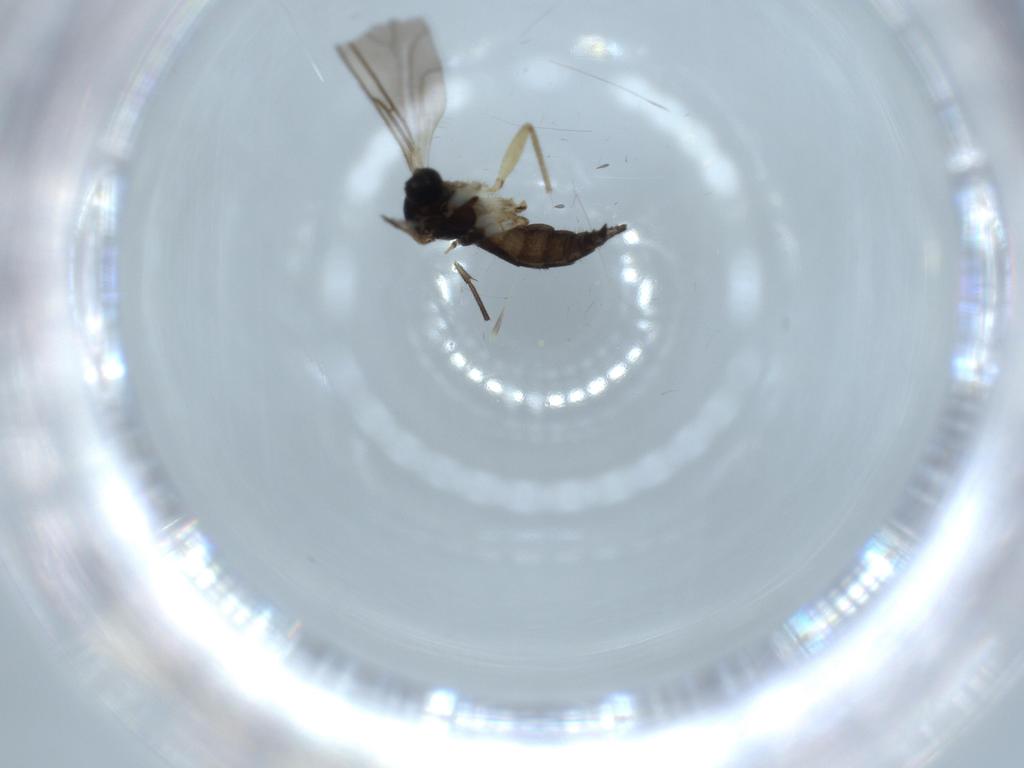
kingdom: Animalia
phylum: Arthropoda
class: Insecta
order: Diptera
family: Sciaridae
